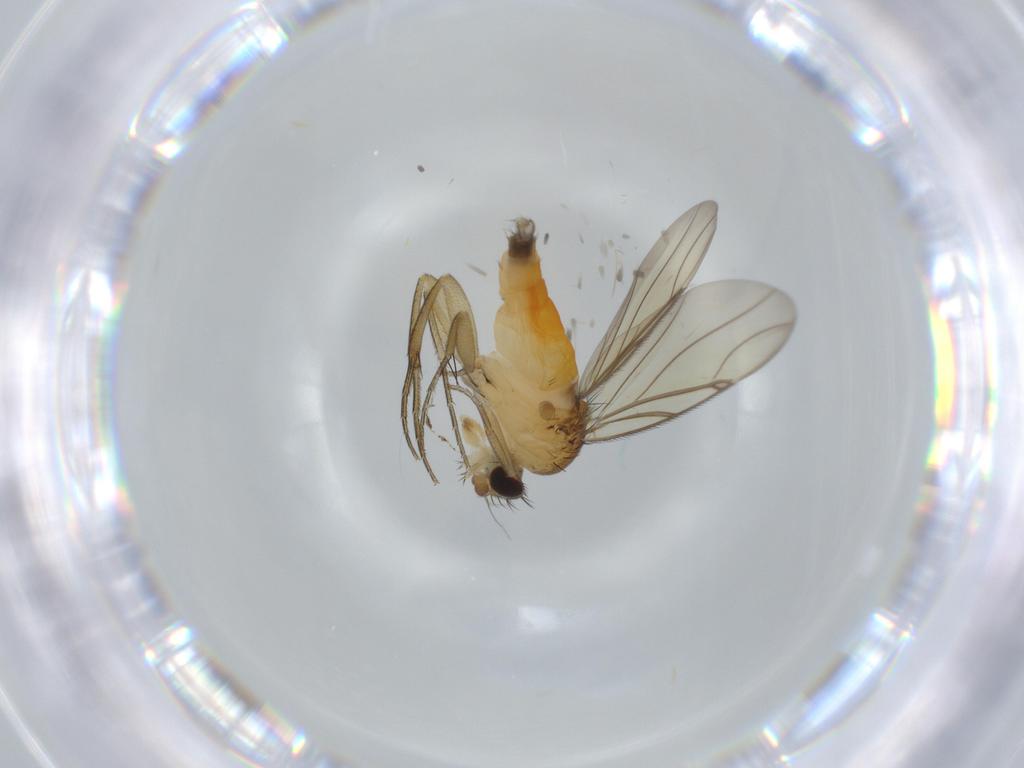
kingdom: Animalia
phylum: Arthropoda
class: Insecta
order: Diptera
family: Phoridae
